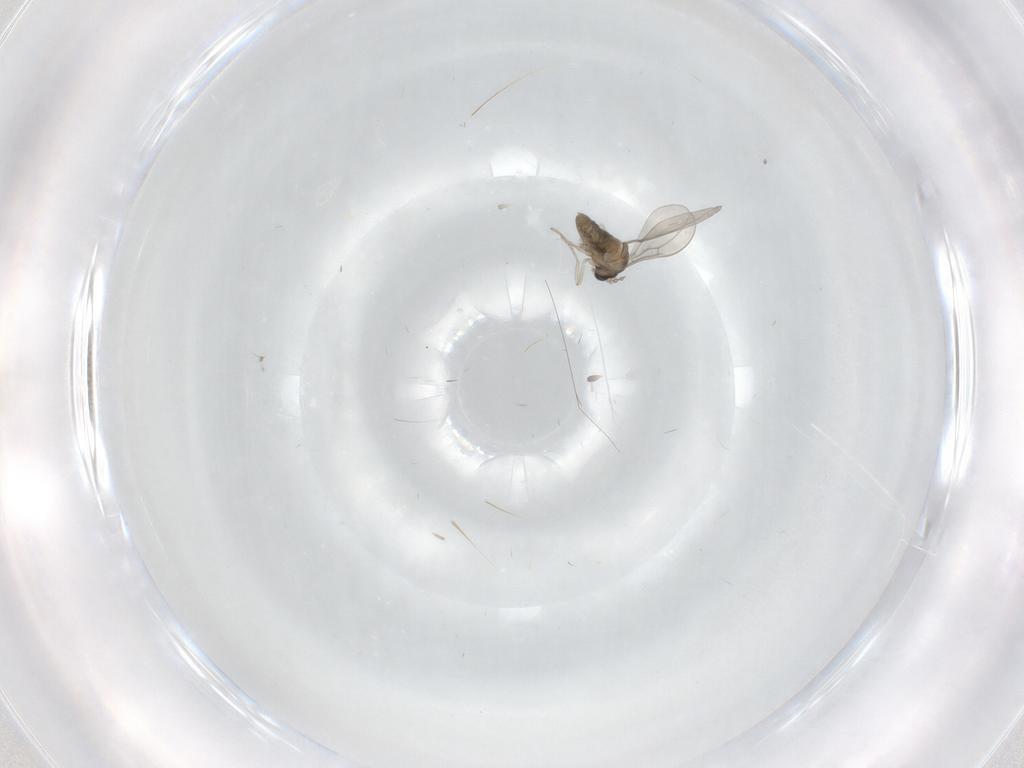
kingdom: Animalia
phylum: Arthropoda
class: Insecta
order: Diptera
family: Cecidomyiidae
